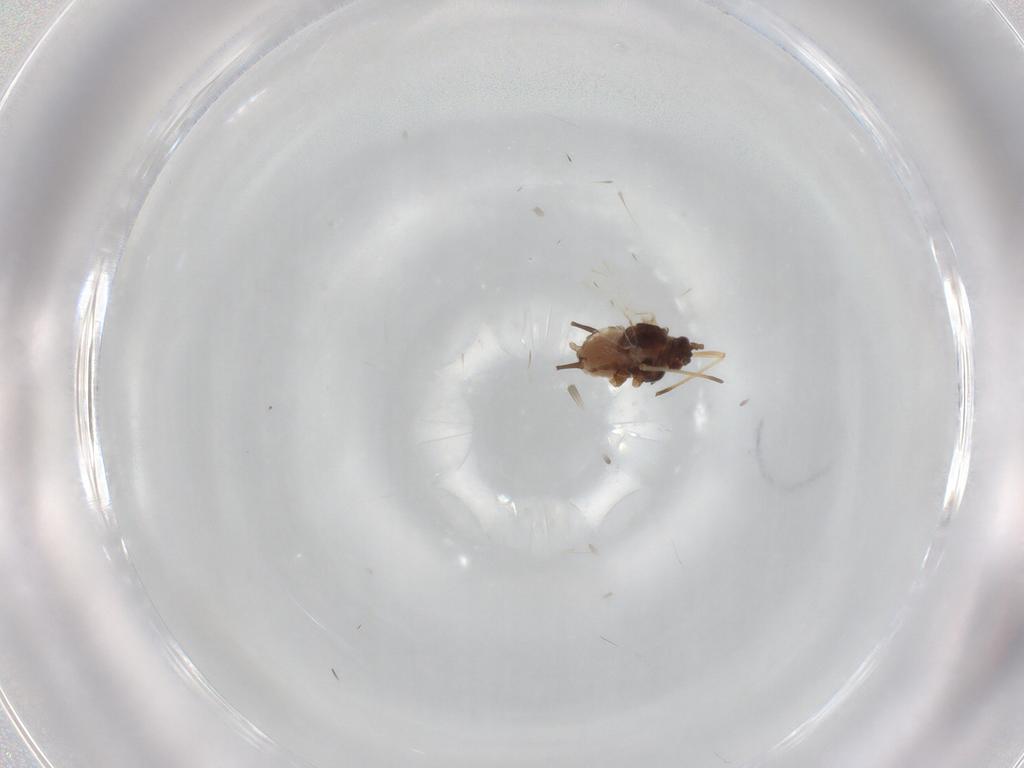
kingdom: Animalia
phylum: Arthropoda
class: Insecta
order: Hemiptera
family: Aphididae
